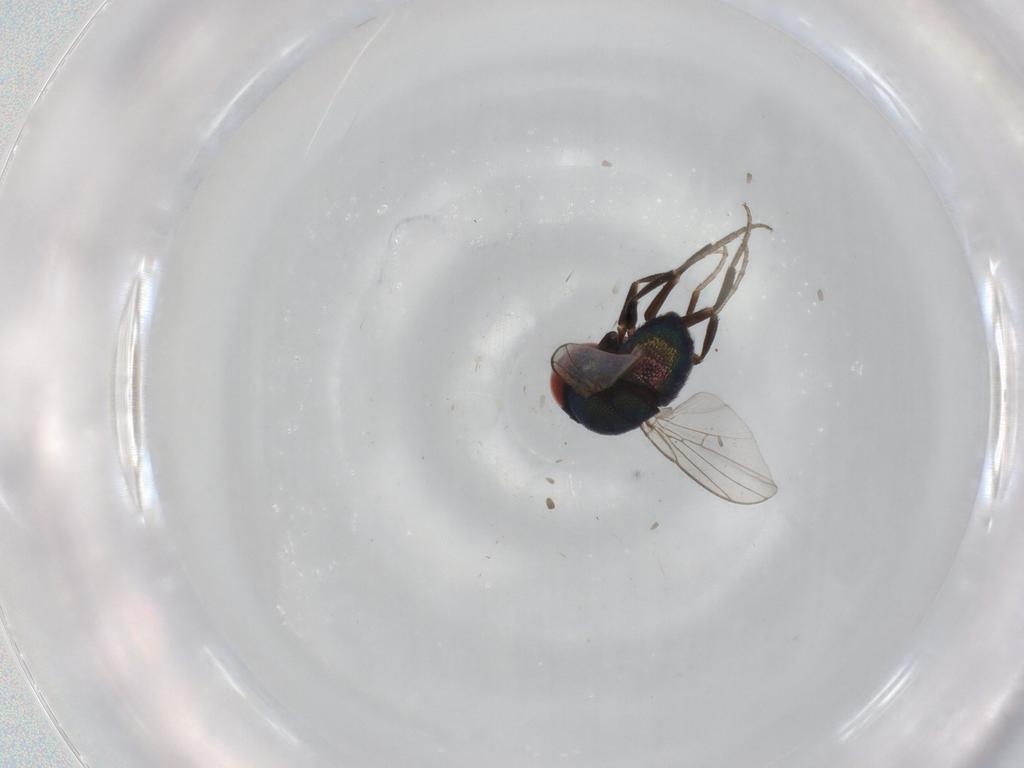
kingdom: Animalia
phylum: Arthropoda
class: Insecta
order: Diptera
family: Cryptochetidae
